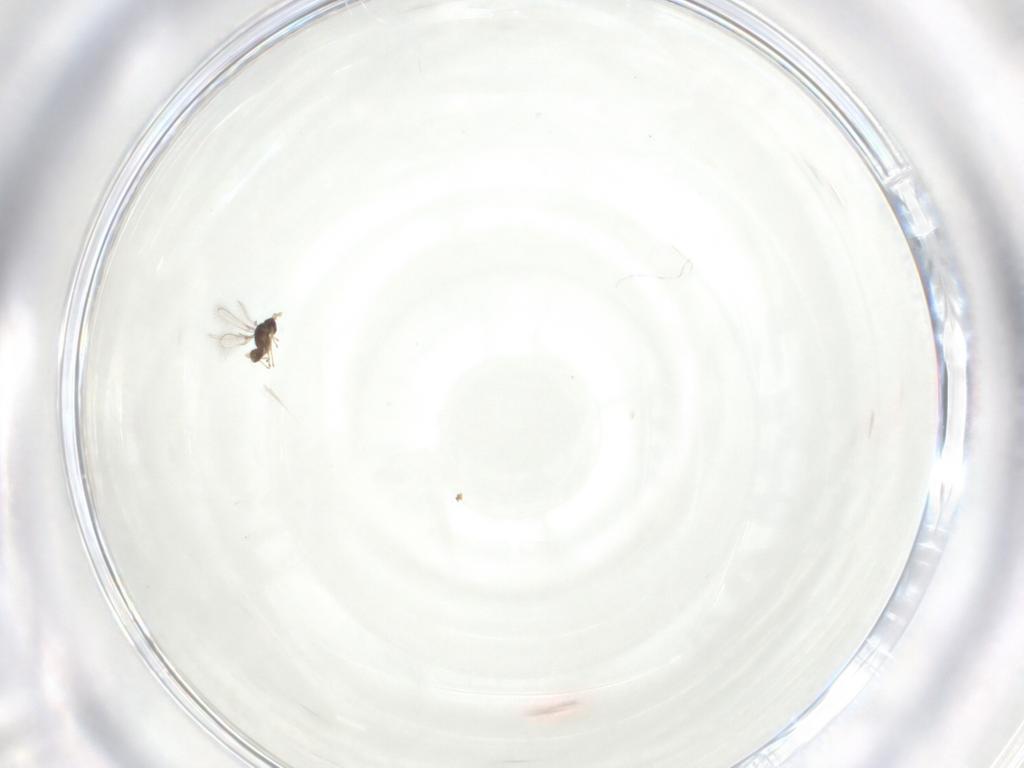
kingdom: Animalia
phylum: Arthropoda
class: Insecta
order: Hymenoptera
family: Mymaridae
